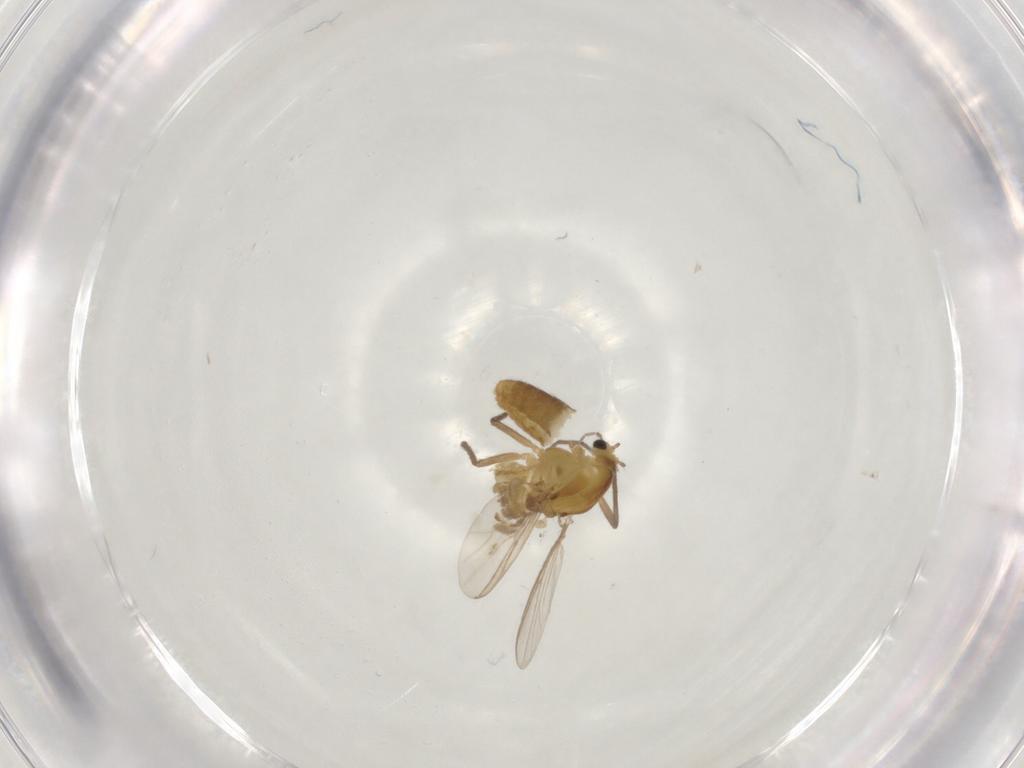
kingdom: Animalia
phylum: Arthropoda
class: Insecta
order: Diptera
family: Chironomidae
